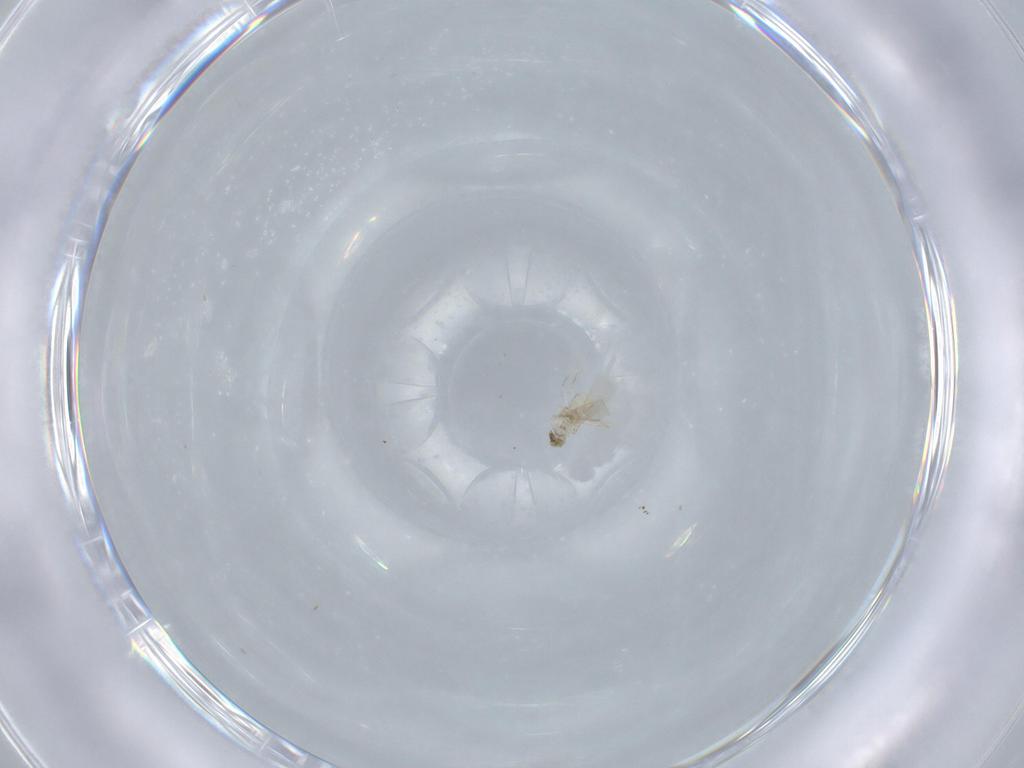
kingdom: Animalia
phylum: Arthropoda
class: Insecta
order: Hymenoptera
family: Aphelinidae
